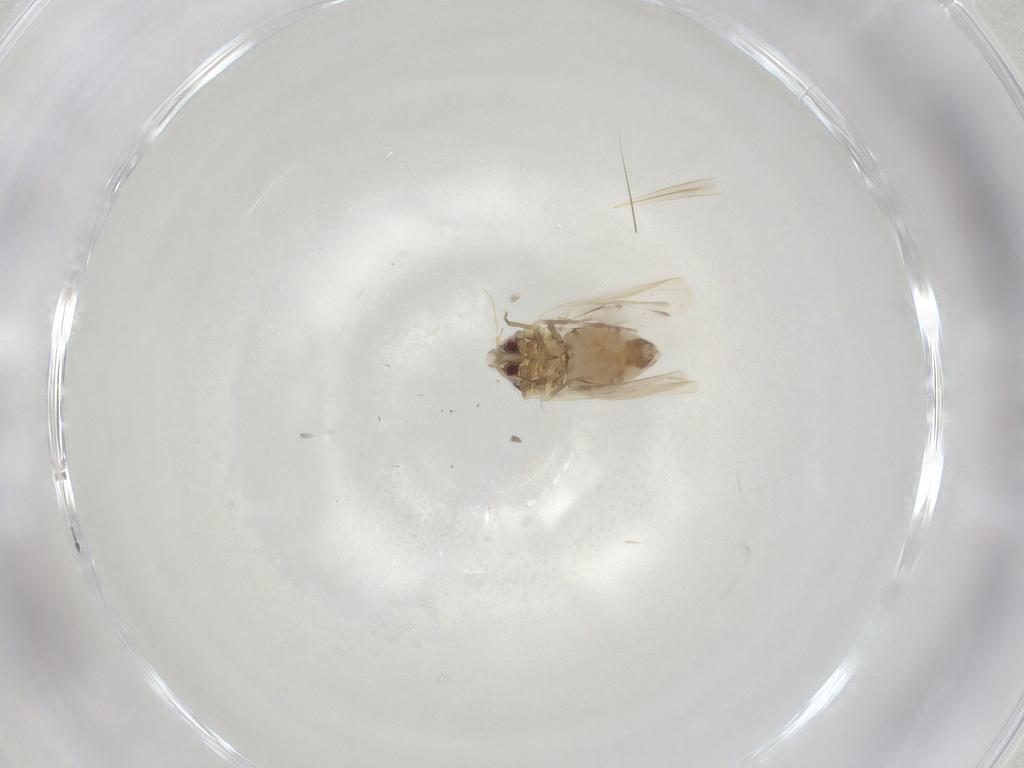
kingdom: Animalia
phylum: Arthropoda
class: Insecta
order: Hemiptera
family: Aleyrodidae
